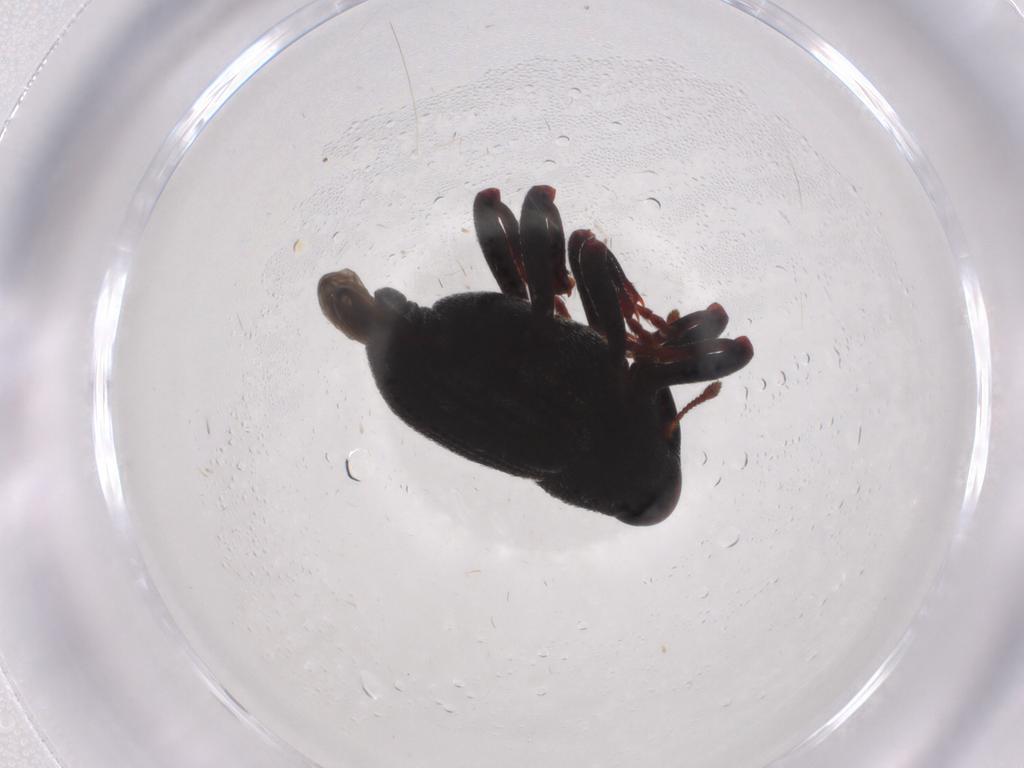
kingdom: Animalia
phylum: Arthropoda
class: Insecta
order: Coleoptera
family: Curculionidae
